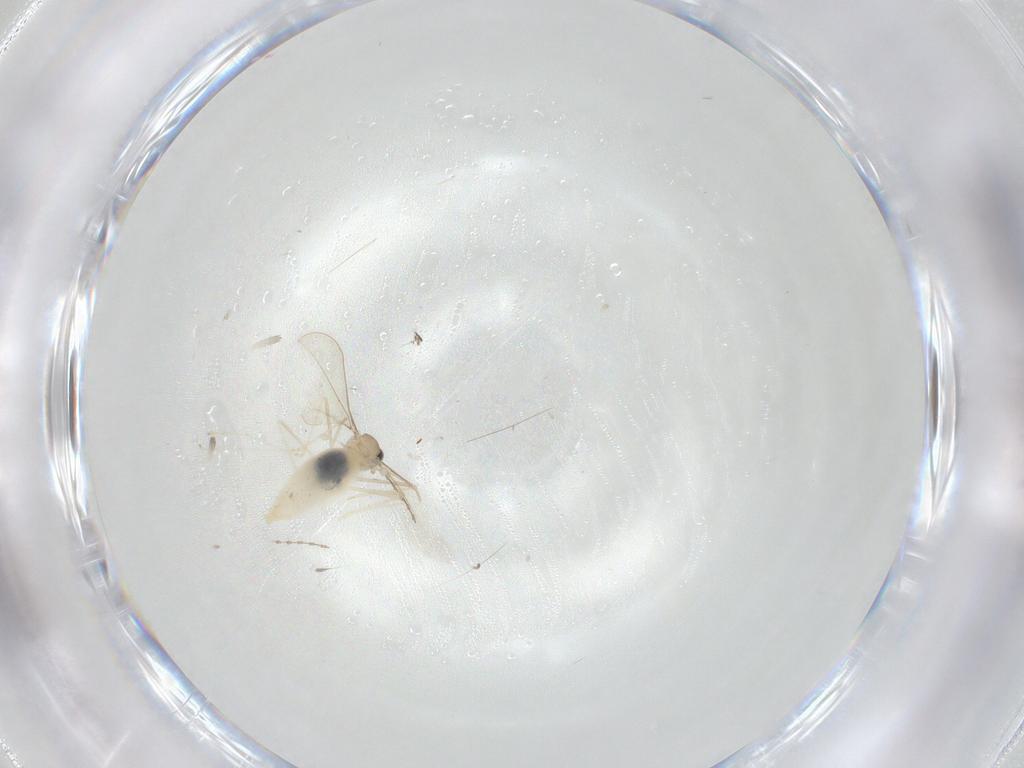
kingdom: Animalia
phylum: Arthropoda
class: Insecta
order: Diptera
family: Cecidomyiidae
